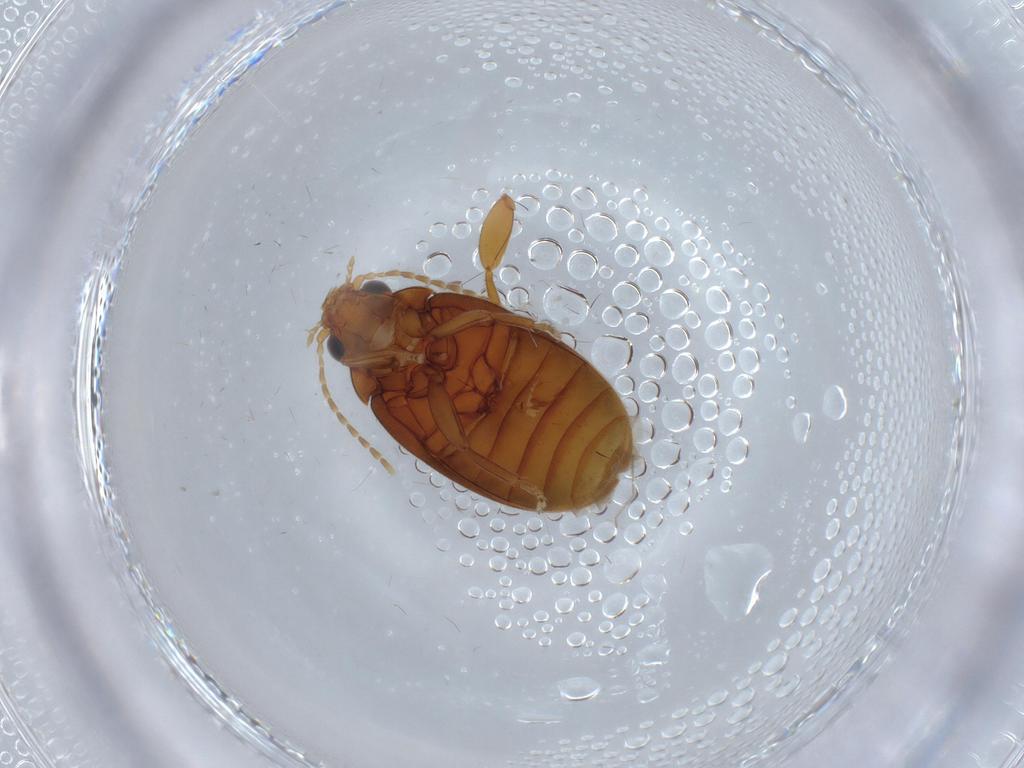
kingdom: Animalia
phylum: Arthropoda
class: Insecta
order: Coleoptera
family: Scirtidae
